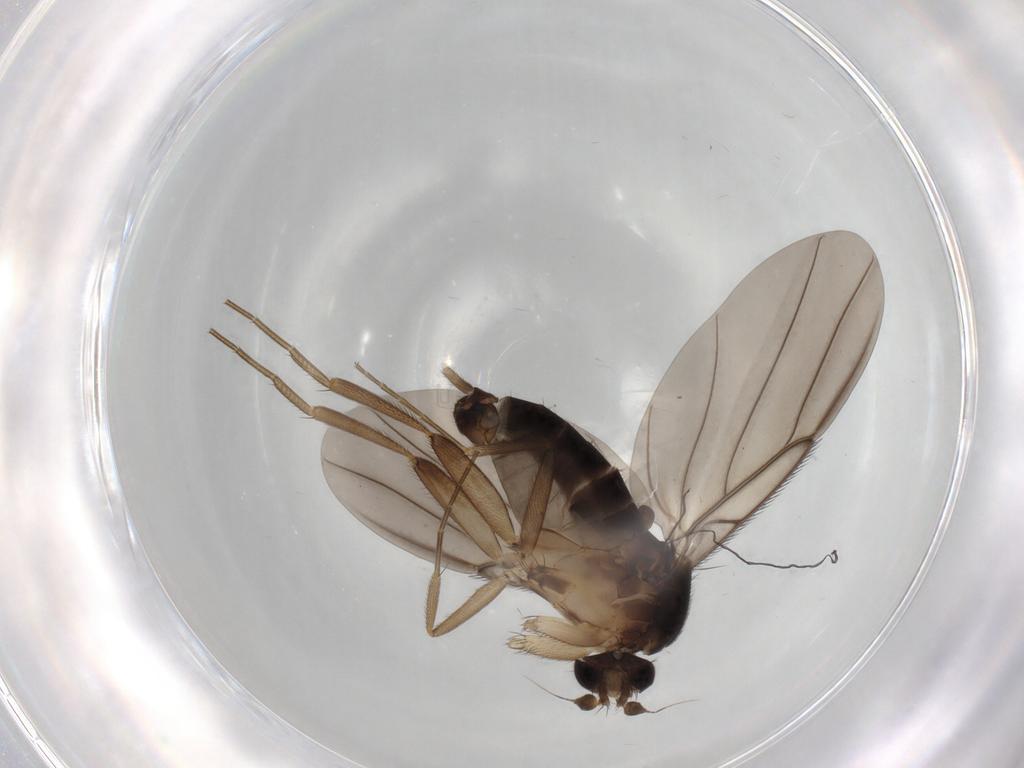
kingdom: Animalia
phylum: Arthropoda
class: Insecta
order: Diptera
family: Phoridae
